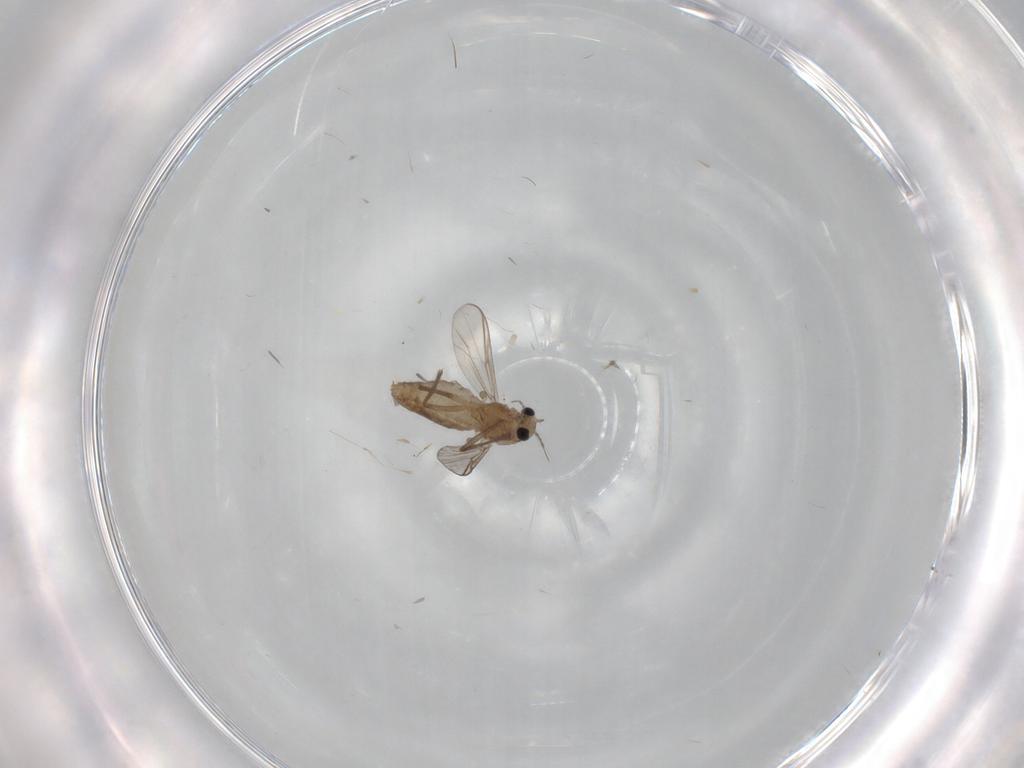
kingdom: Animalia
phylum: Arthropoda
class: Insecta
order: Diptera
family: Chironomidae
